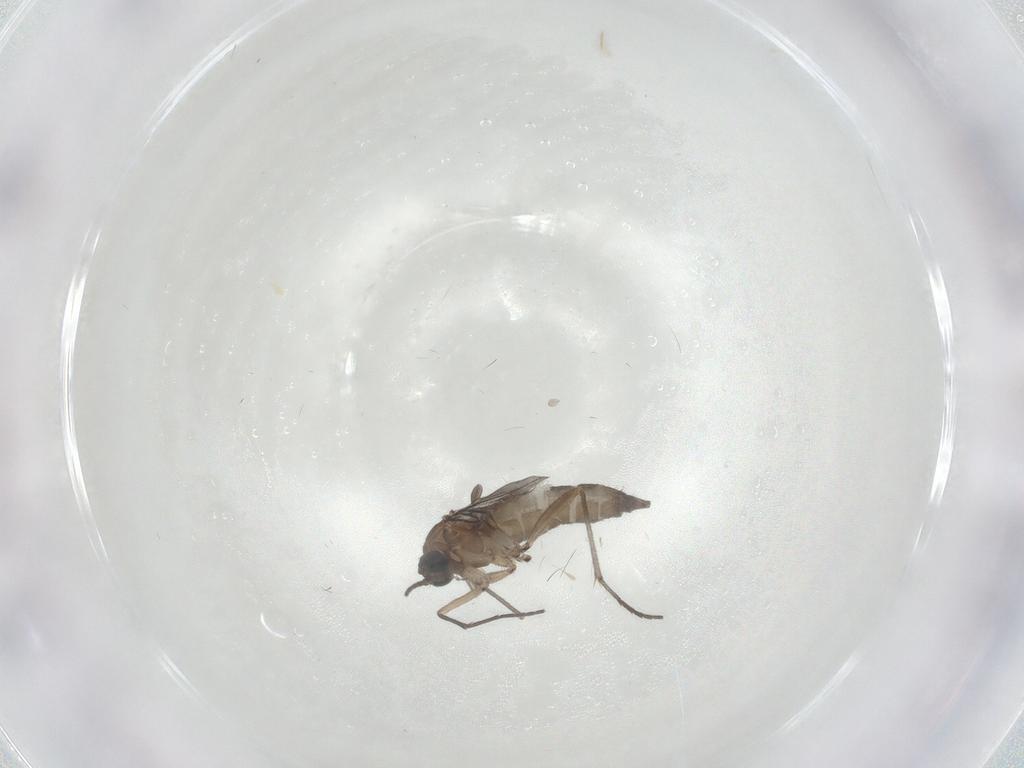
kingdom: Animalia
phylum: Arthropoda
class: Insecta
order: Diptera
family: Cecidomyiidae
